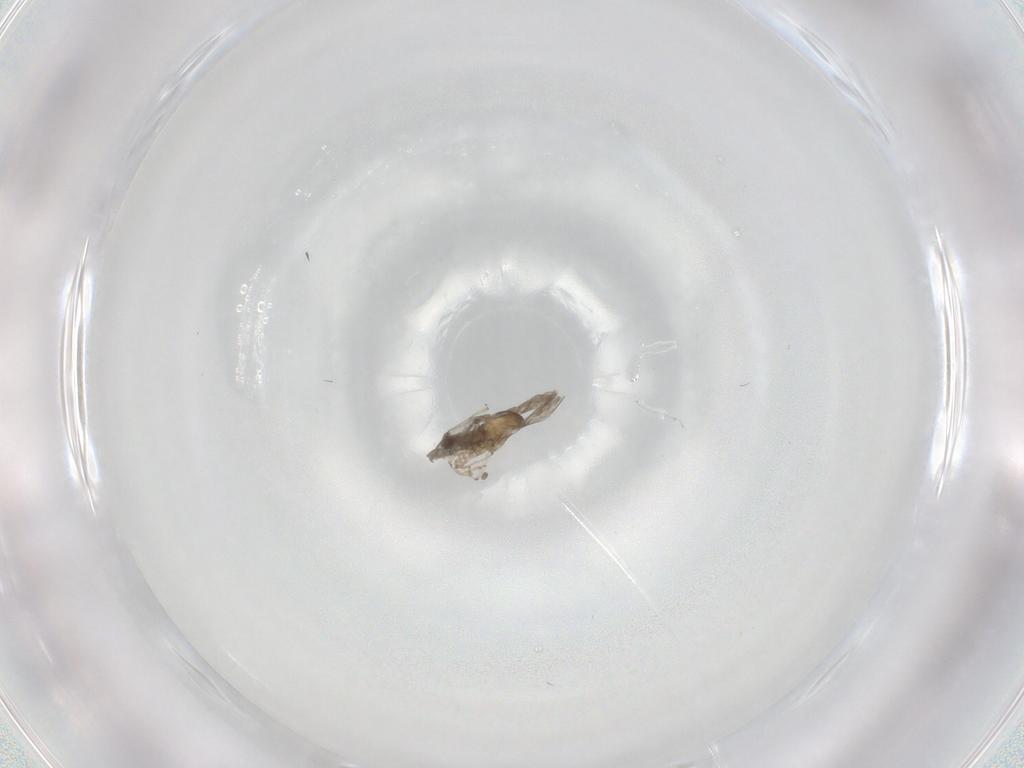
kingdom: Animalia
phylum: Arthropoda
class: Insecta
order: Diptera
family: Cecidomyiidae
